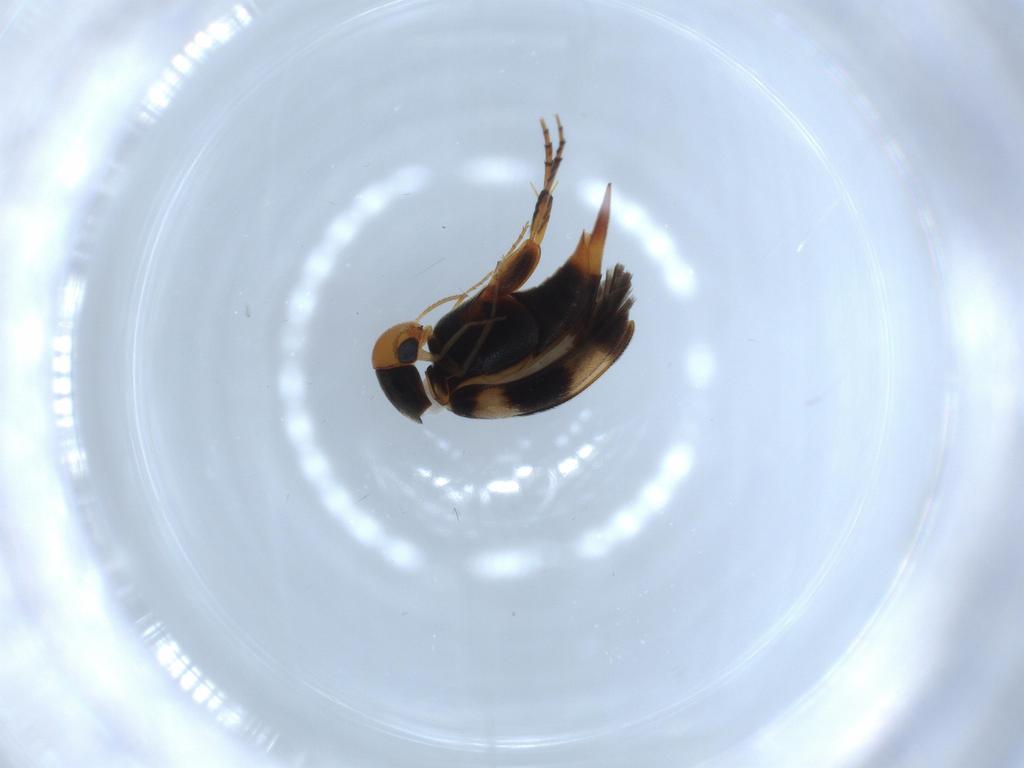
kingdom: Animalia
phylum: Arthropoda
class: Insecta
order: Coleoptera
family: Mordellidae
